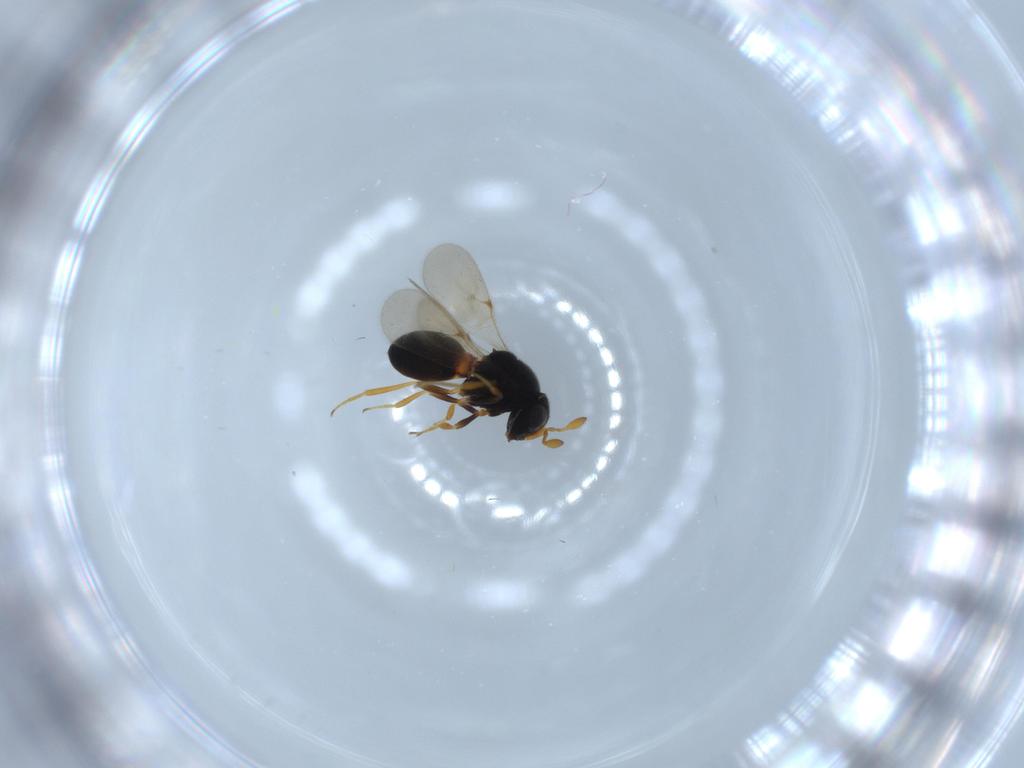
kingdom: Animalia
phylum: Arthropoda
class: Insecta
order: Hymenoptera
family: Scelionidae
